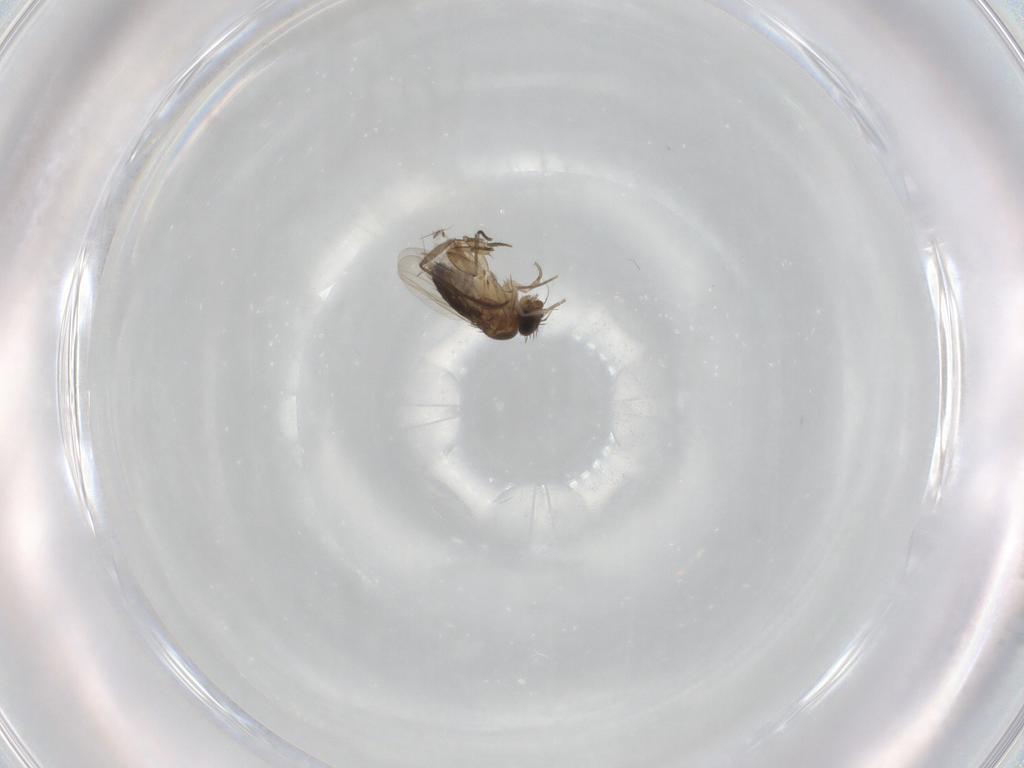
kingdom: Animalia
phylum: Arthropoda
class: Insecta
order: Diptera
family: Phoridae
